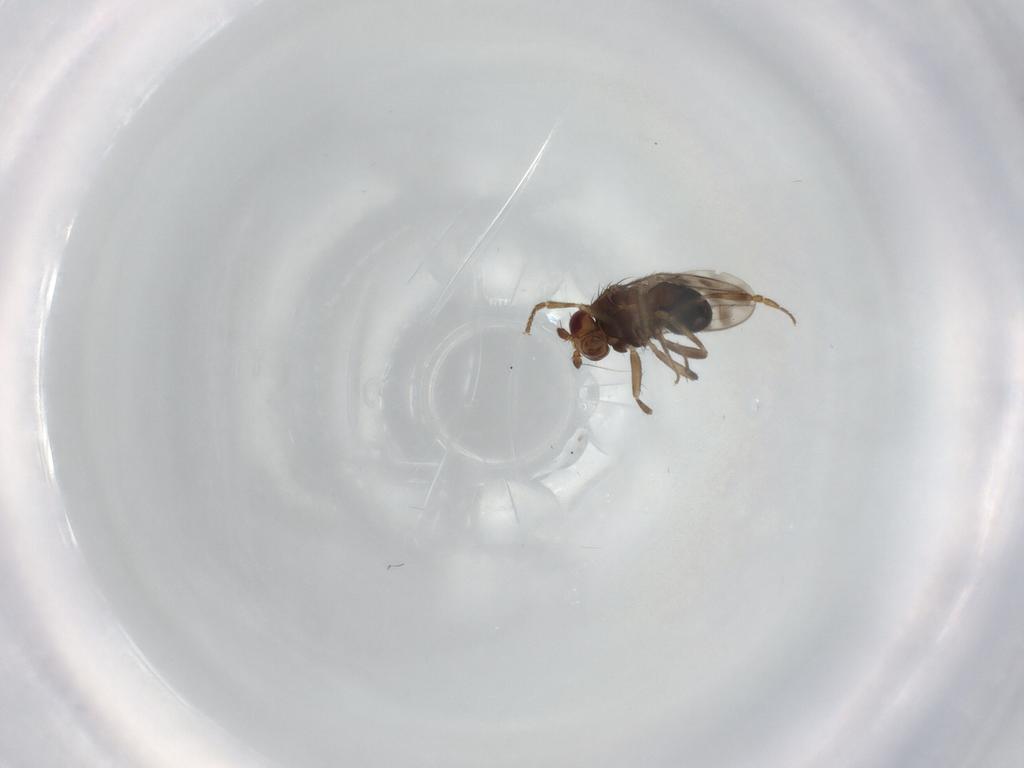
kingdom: Animalia
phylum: Arthropoda
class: Insecta
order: Diptera
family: Sphaeroceridae
